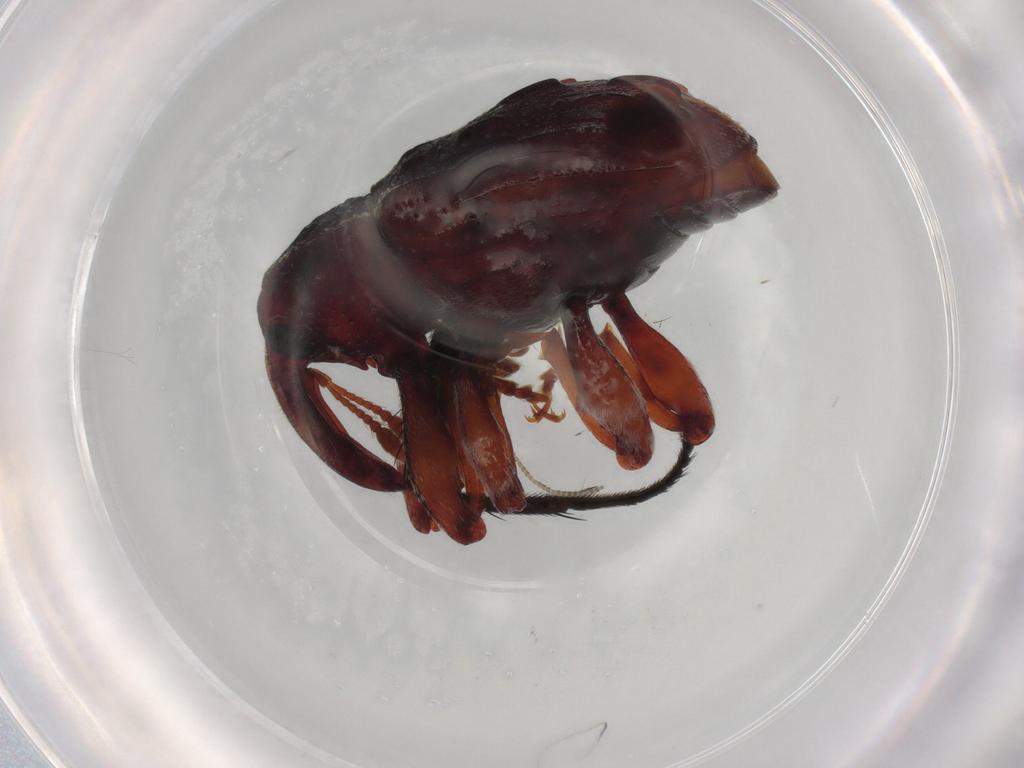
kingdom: Animalia
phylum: Arthropoda
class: Insecta
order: Coleoptera
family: Curculionidae
